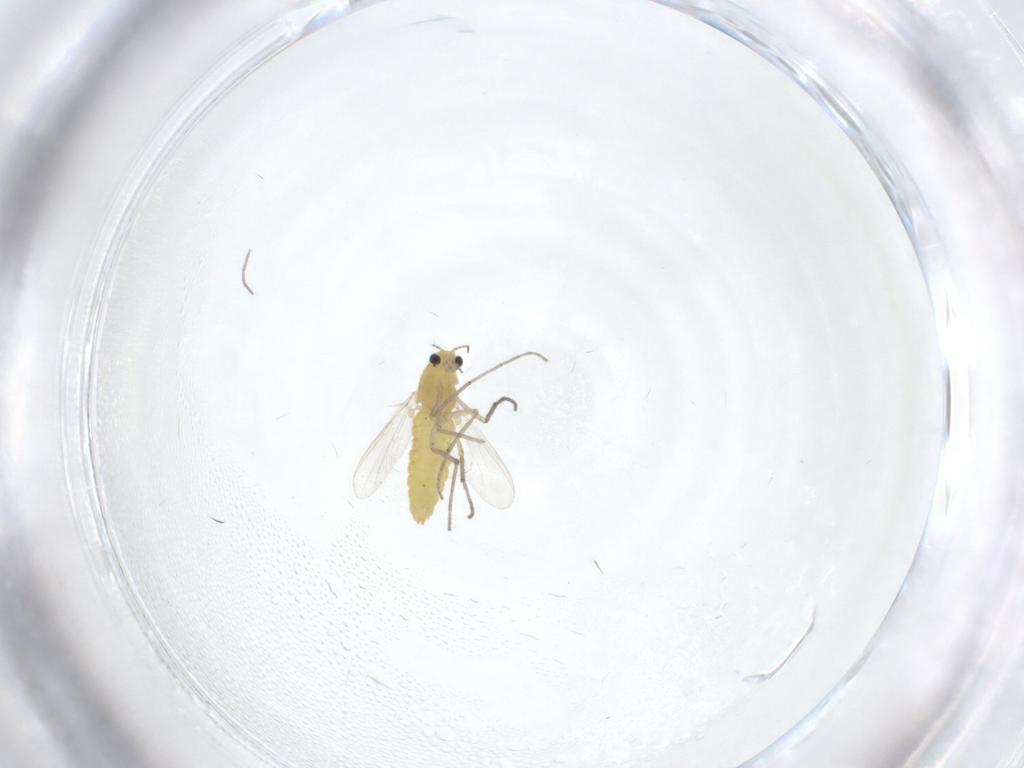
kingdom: Animalia
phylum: Arthropoda
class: Insecta
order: Diptera
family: Chironomidae
